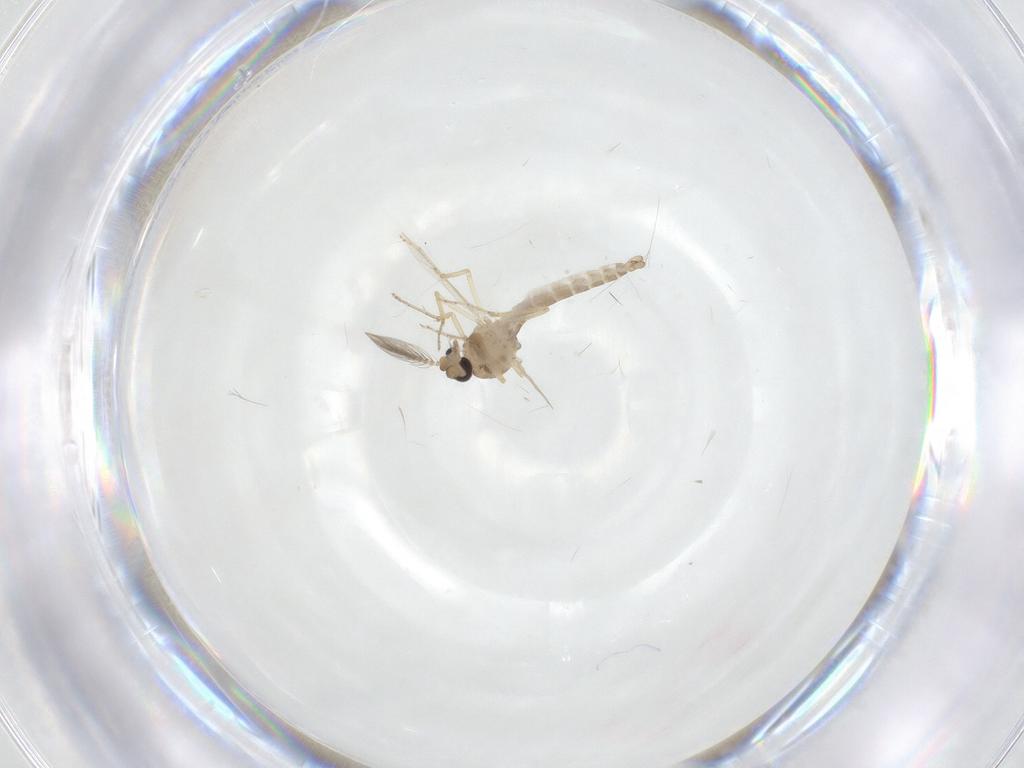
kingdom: Animalia
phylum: Arthropoda
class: Insecta
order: Diptera
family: Ceratopogonidae
